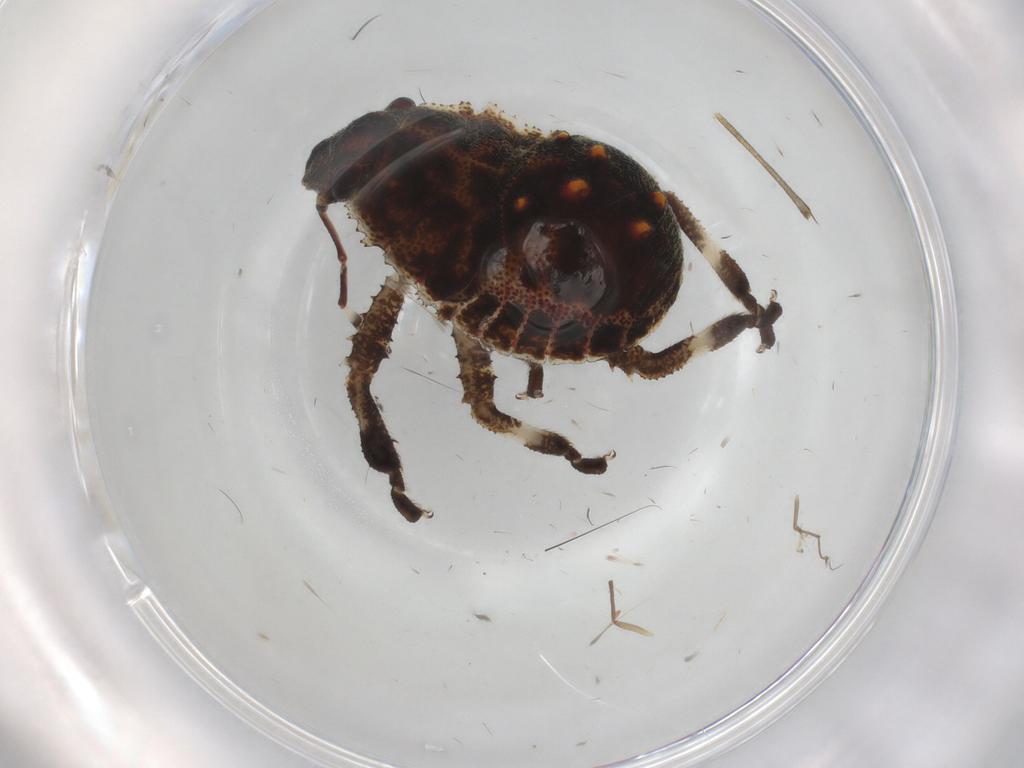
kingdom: Animalia
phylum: Arthropoda
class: Insecta
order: Hemiptera
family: Pentatomidae
